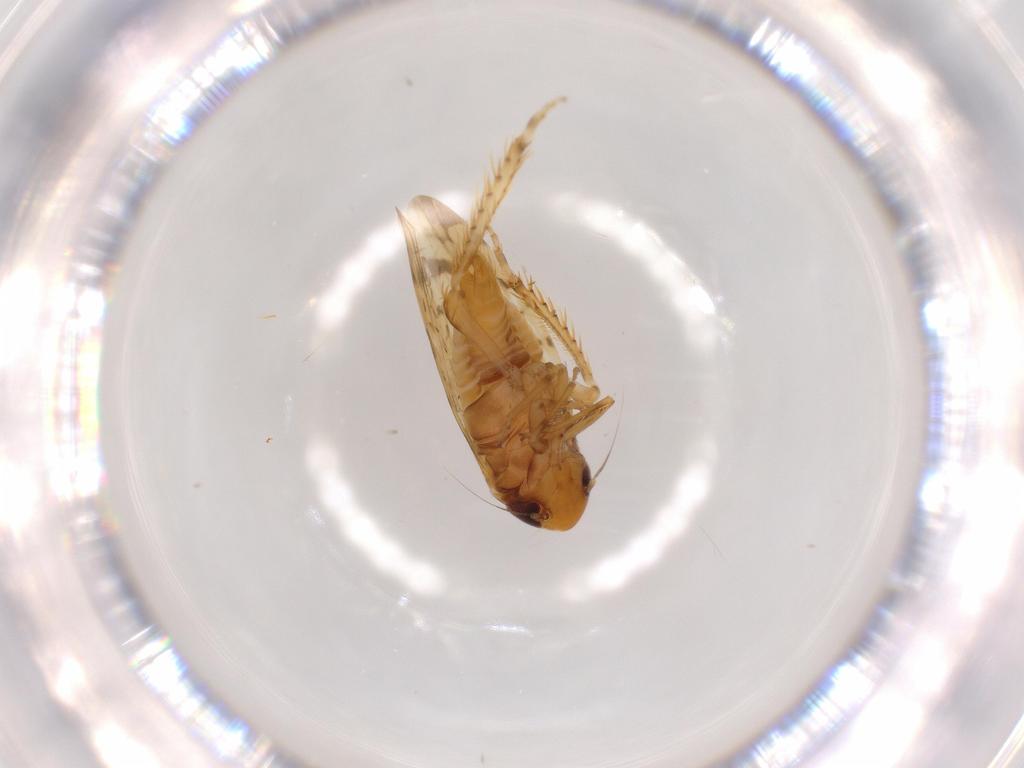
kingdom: Animalia
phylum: Arthropoda
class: Insecta
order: Hemiptera
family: Cicadellidae
